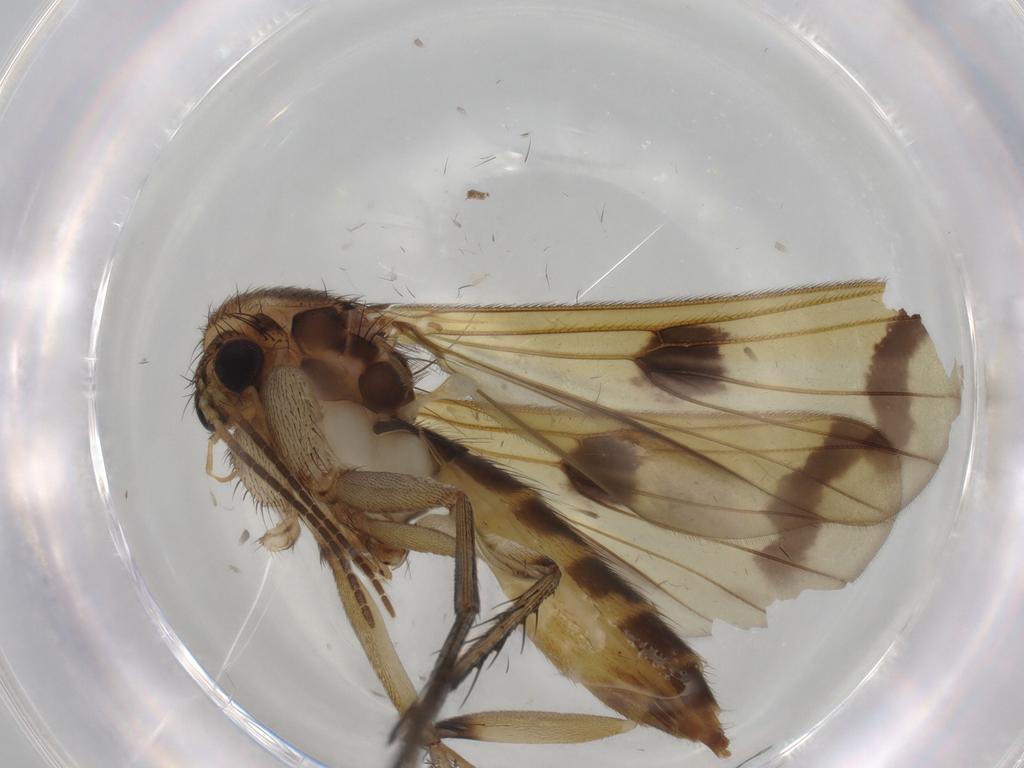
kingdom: Animalia
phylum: Arthropoda
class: Insecta
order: Diptera
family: Mycetophilidae
